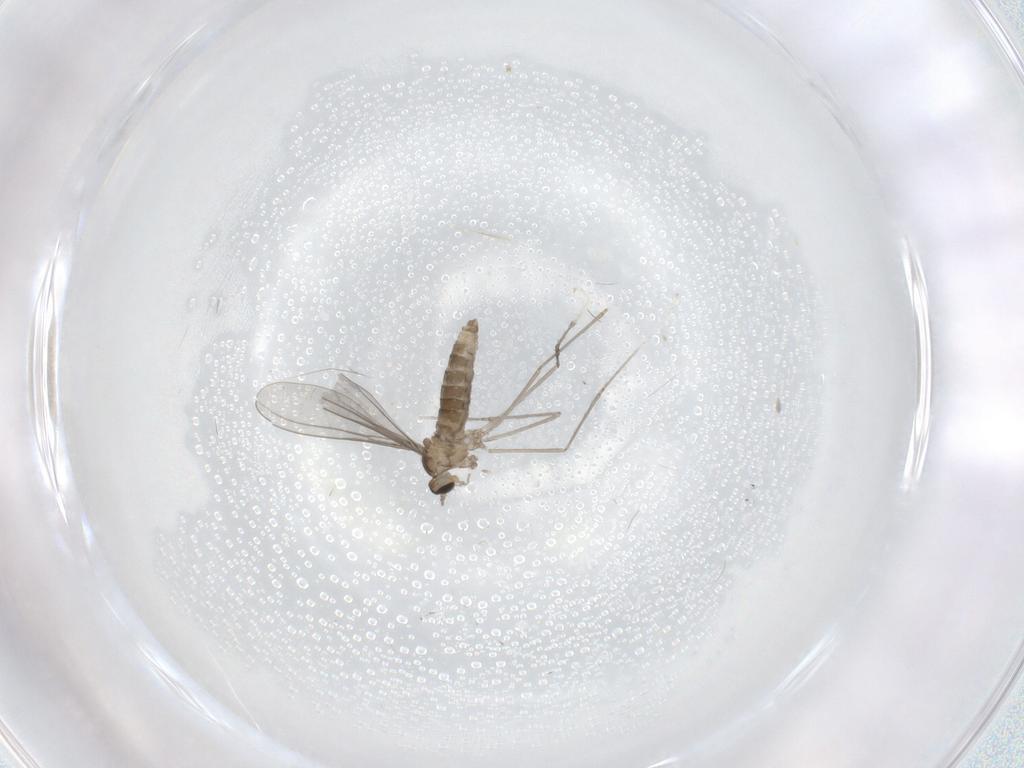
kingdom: Animalia
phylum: Arthropoda
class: Insecta
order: Diptera
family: Cecidomyiidae
